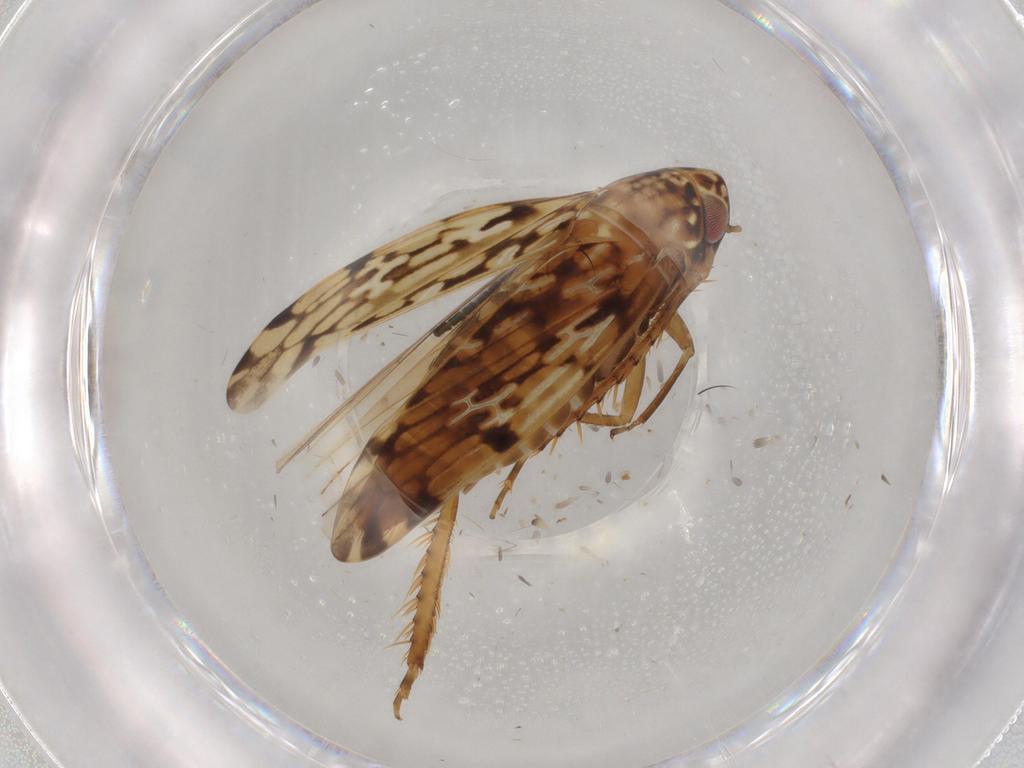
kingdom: Animalia
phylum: Arthropoda
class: Insecta
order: Hemiptera
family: Cicadellidae
